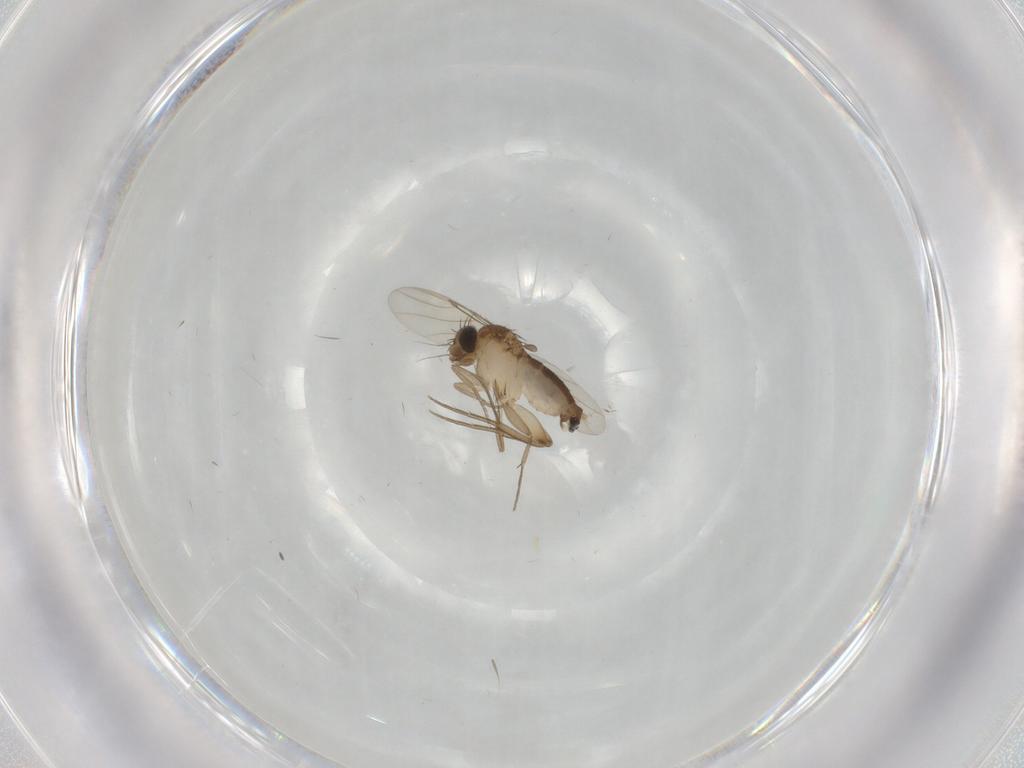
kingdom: Animalia
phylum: Arthropoda
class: Insecta
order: Diptera
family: Phoridae
